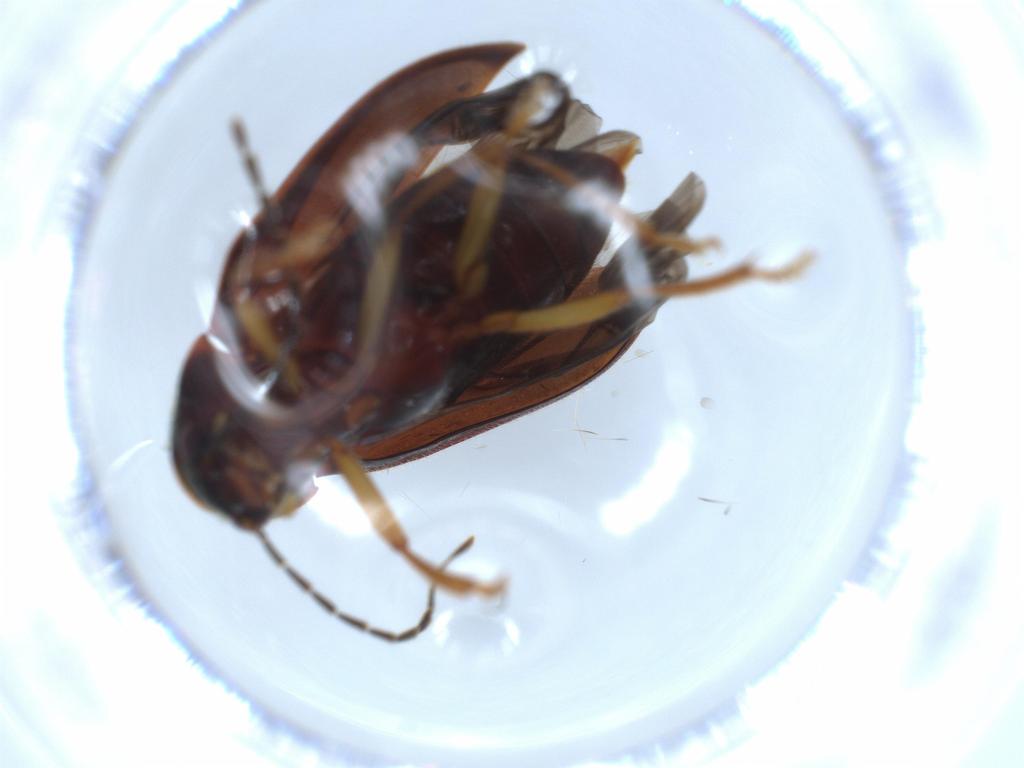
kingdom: Animalia
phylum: Arthropoda
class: Insecta
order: Coleoptera
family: Ptilodactylidae
